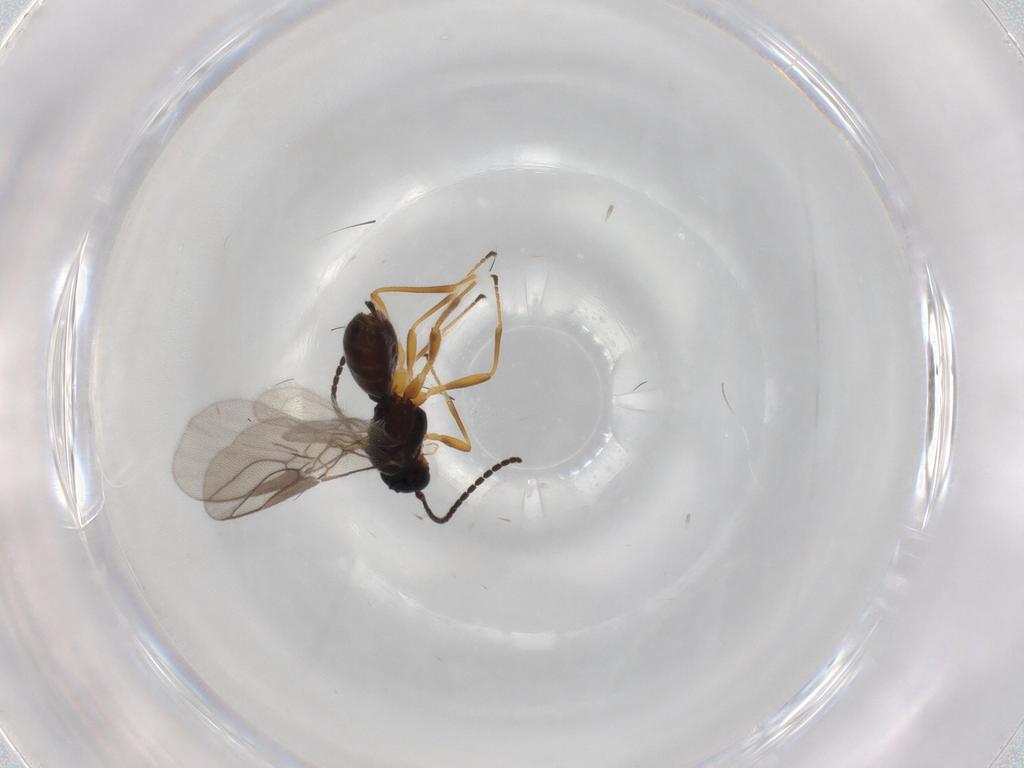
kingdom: Animalia
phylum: Arthropoda
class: Insecta
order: Hymenoptera
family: Braconidae
